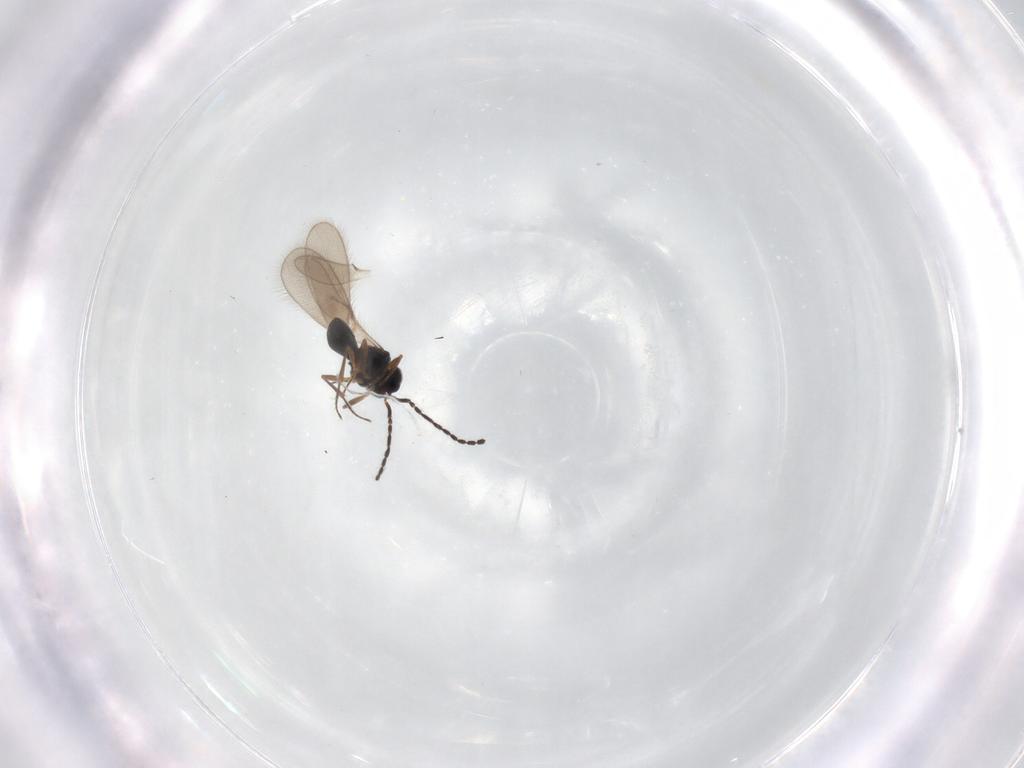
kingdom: Animalia
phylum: Arthropoda
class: Insecta
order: Hymenoptera
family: Scelionidae
